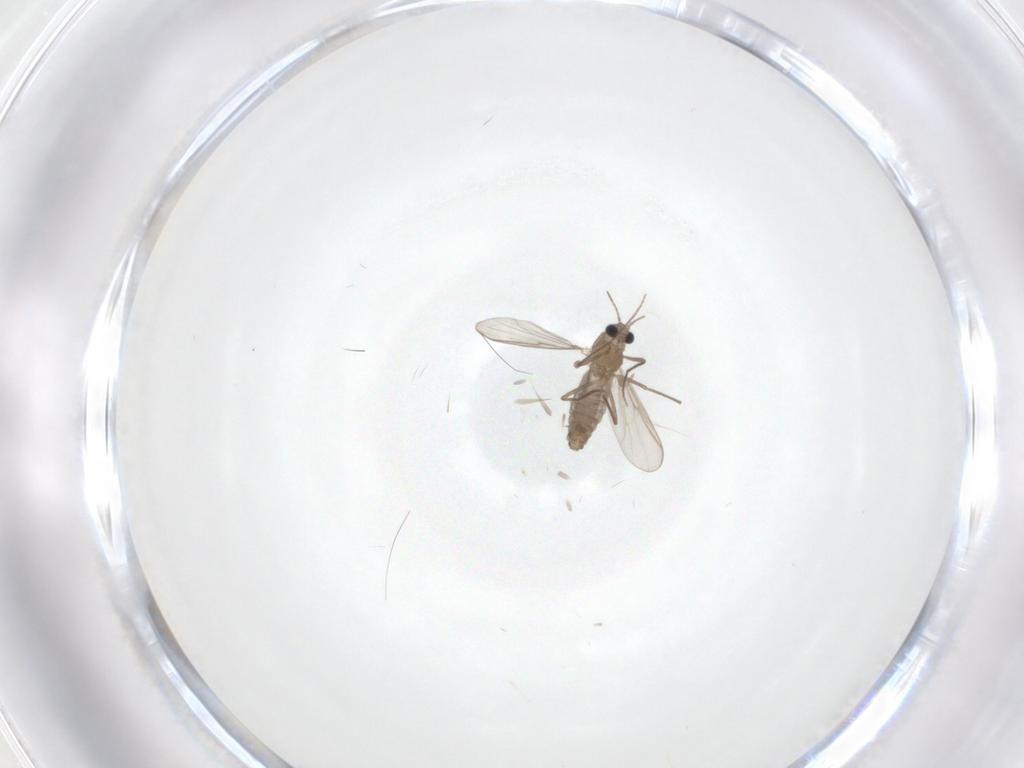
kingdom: Animalia
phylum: Arthropoda
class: Insecta
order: Diptera
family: Chironomidae
